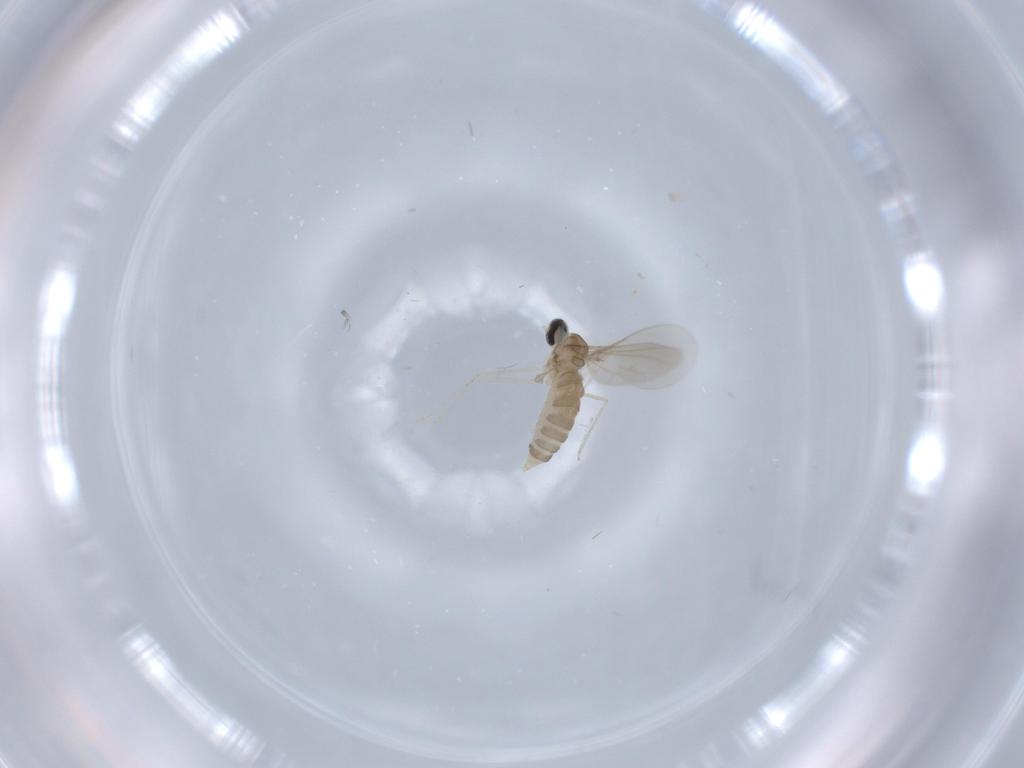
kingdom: Animalia
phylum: Arthropoda
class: Insecta
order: Diptera
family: Cecidomyiidae
